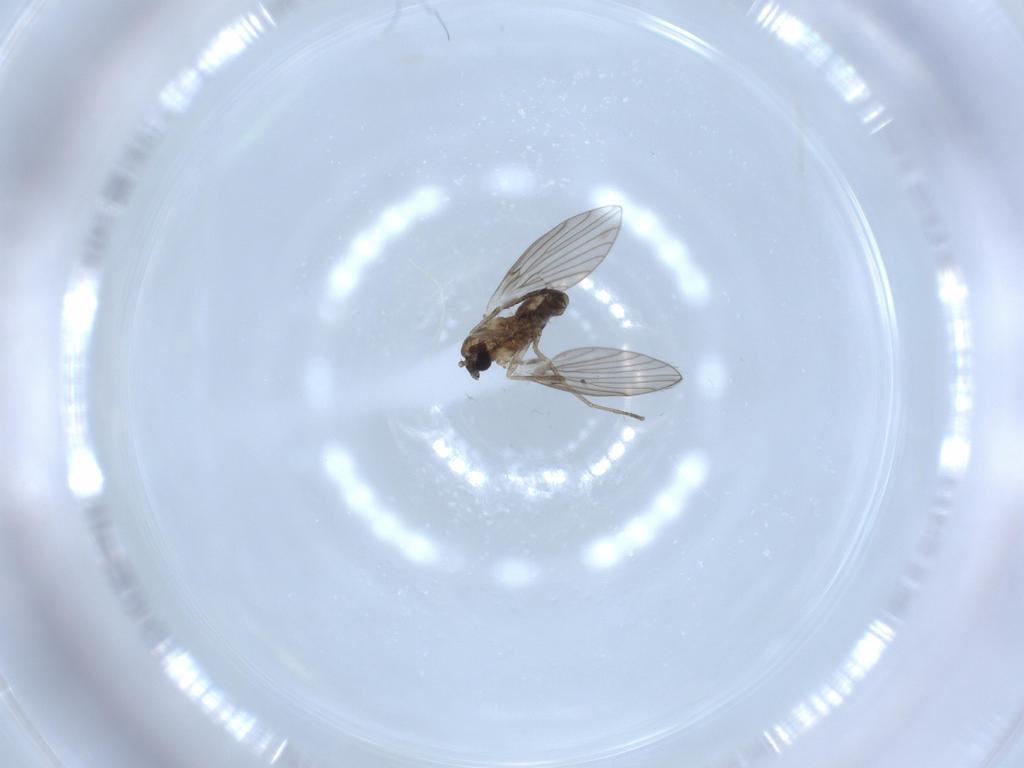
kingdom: Animalia
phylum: Arthropoda
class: Insecta
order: Diptera
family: Psychodidae
